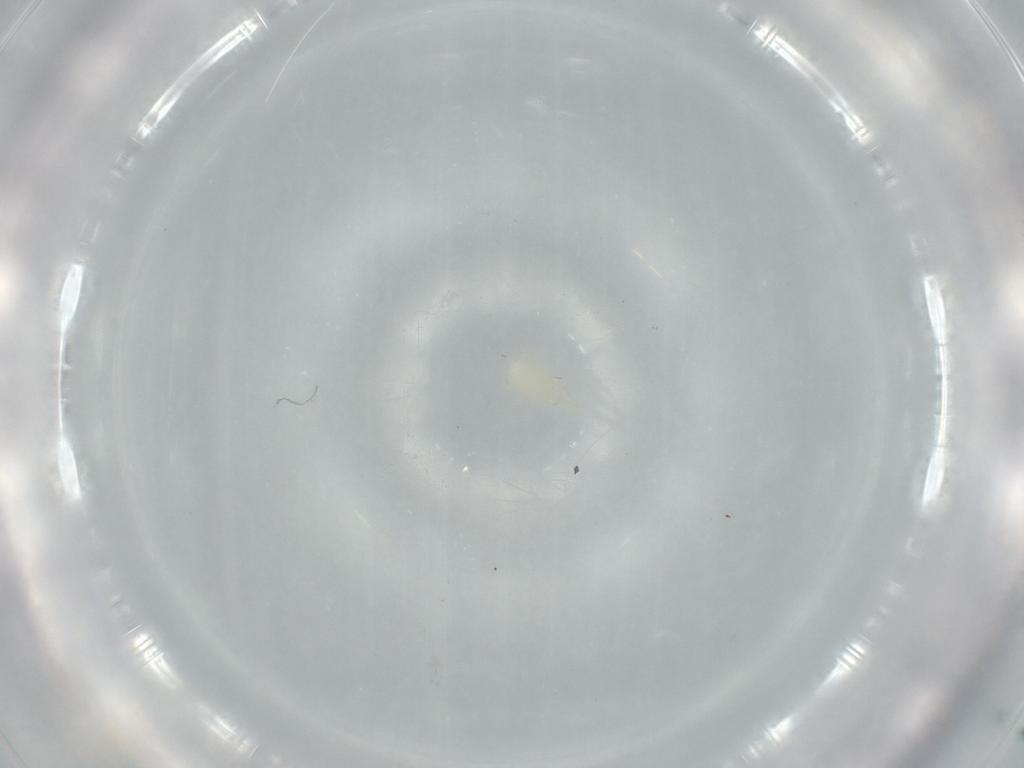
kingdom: Animalia
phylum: Arthropoda
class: Arachnida
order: Mesostigmata
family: Dermanyssidae
